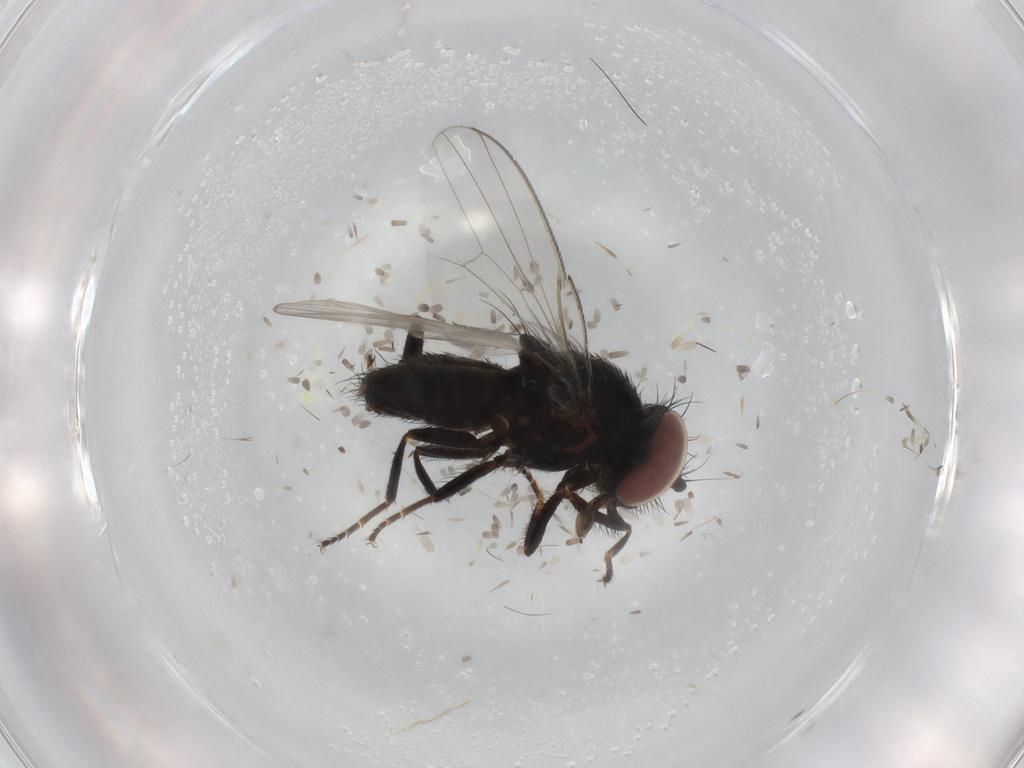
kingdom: Animalia
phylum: Arthropoda
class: Insecta
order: Diptera
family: Milichiidae
